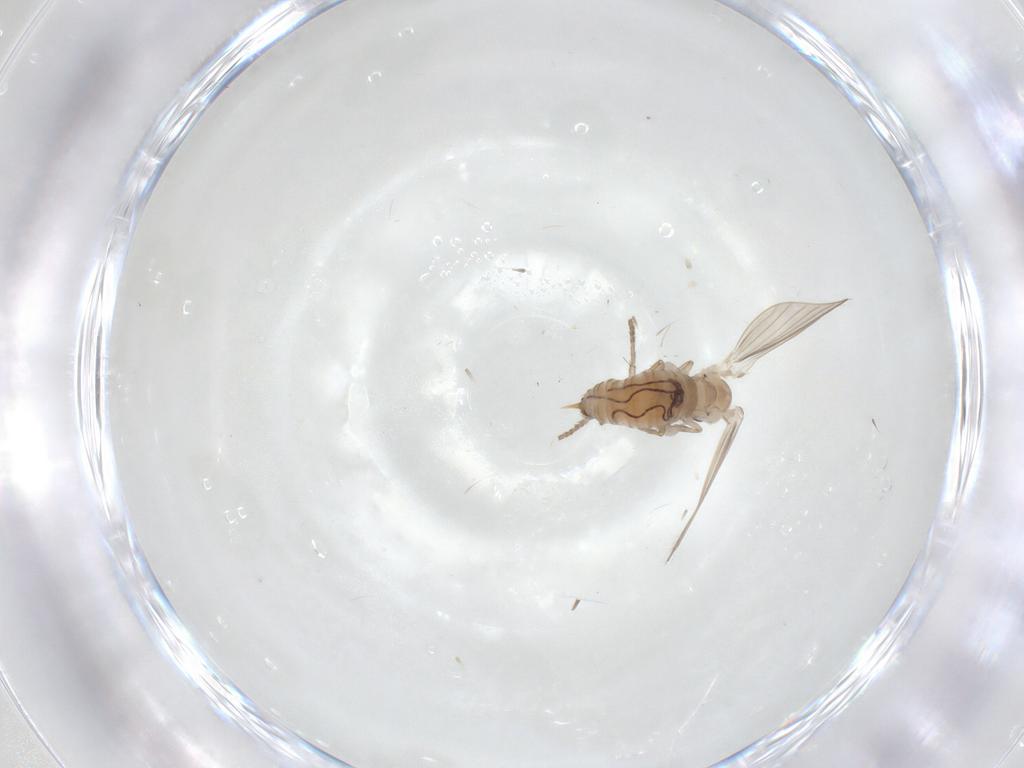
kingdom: Animalia
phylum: Arthropoda
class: Insecta
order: Diptera
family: Psychodidae
